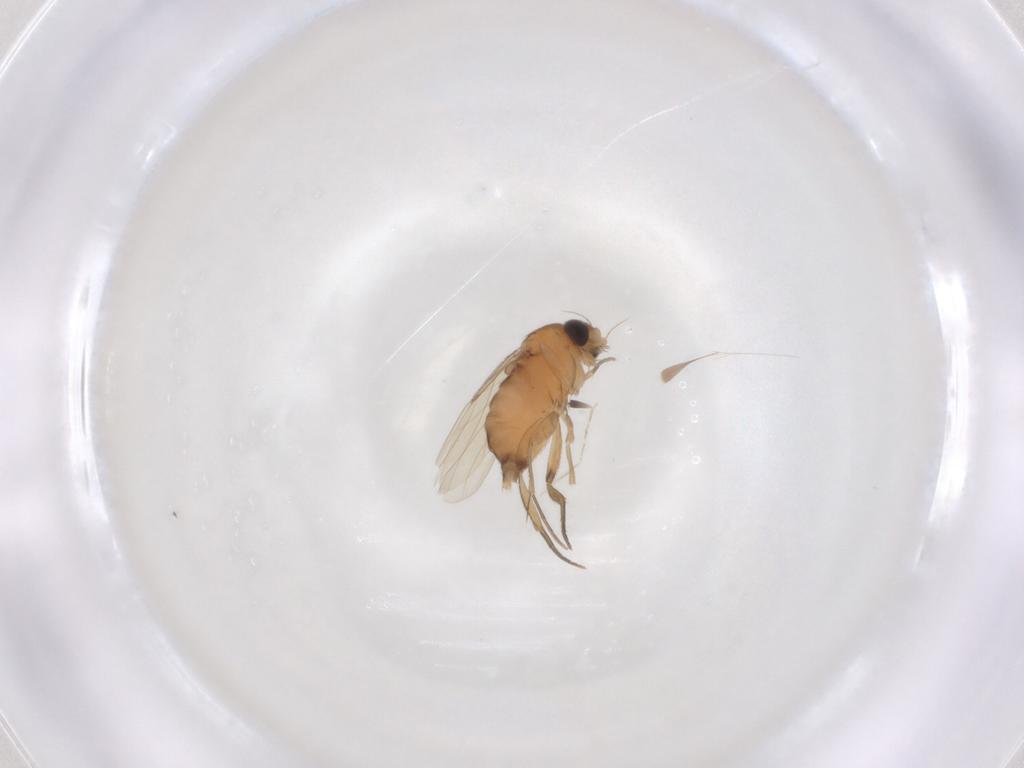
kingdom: Animalia
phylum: Arthropoda
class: Insecta
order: Diptera
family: Cecidomyiidae
